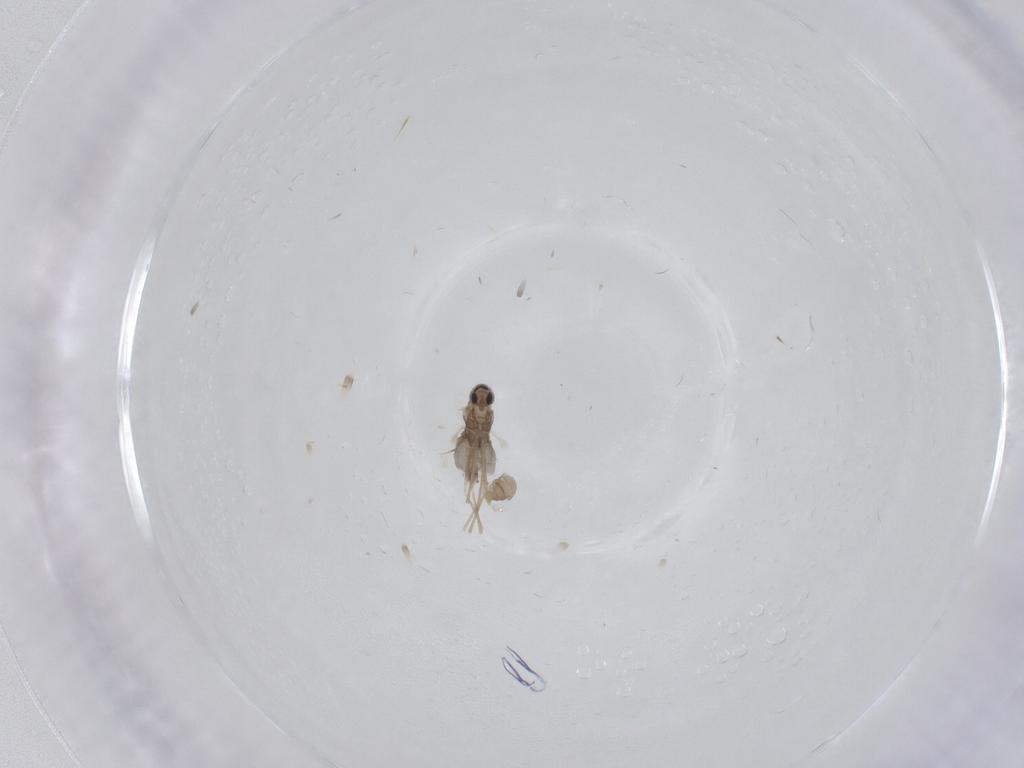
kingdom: Animalia
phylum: Arthropoda
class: Insecta
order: Diptera
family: Cecidomyiidae
